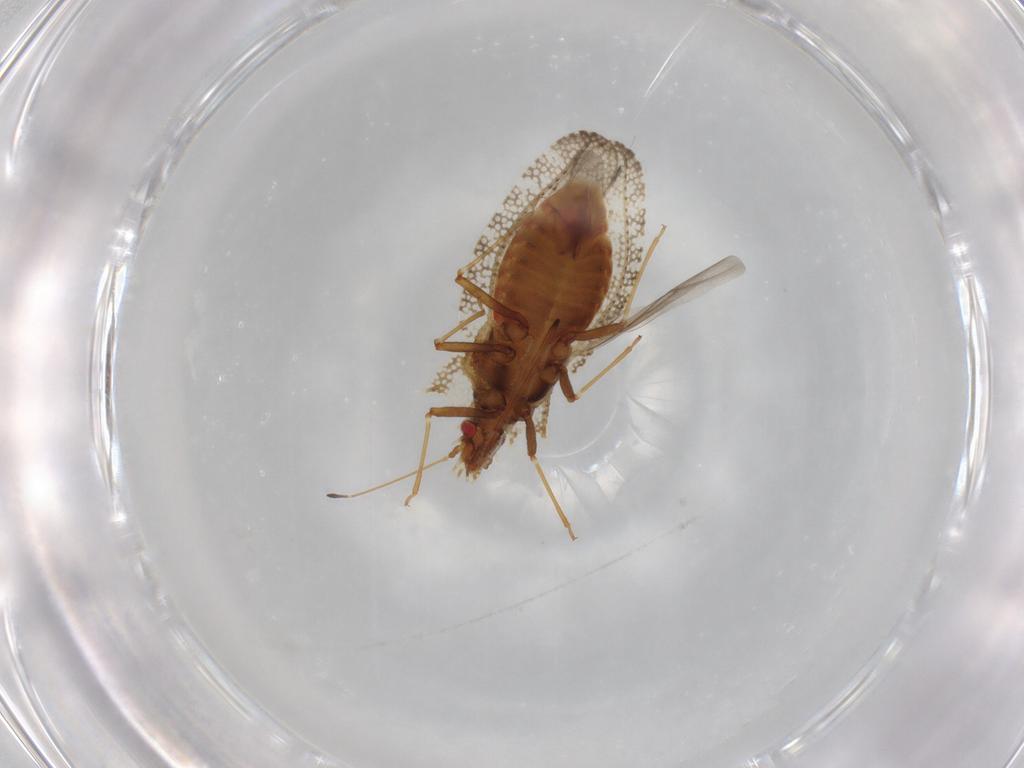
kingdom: Animalia
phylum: Arthropoda
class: Insecta
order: Hemiptera
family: Tingidae
